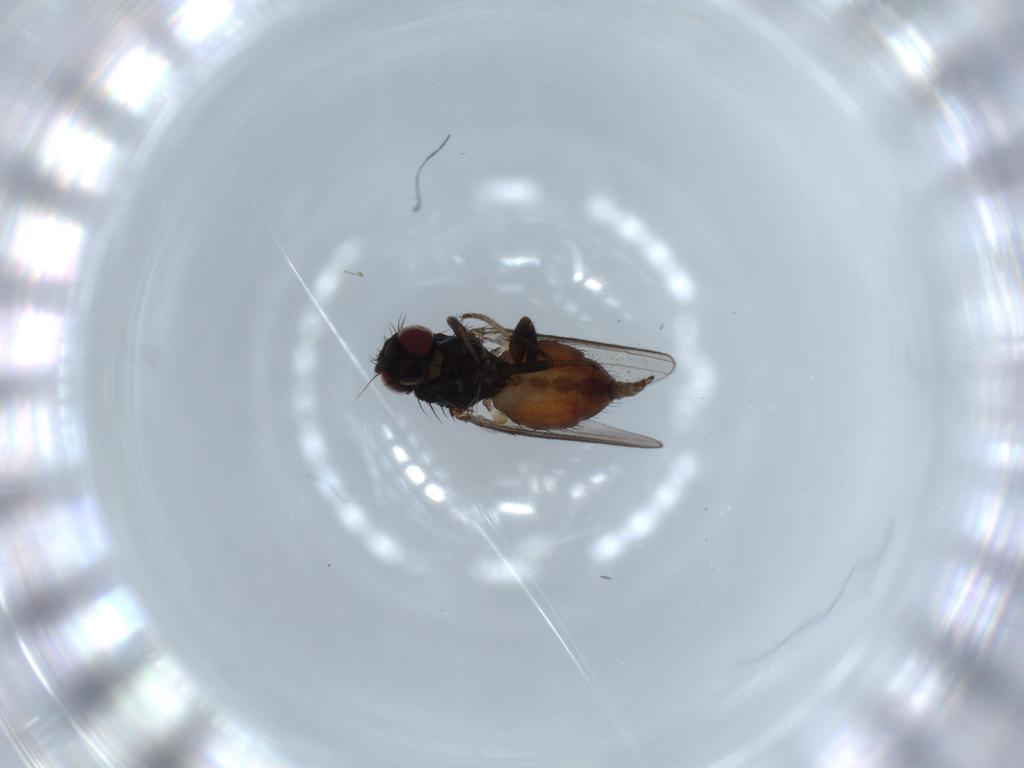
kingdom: Animalia
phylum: Arthropoda
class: Insecta
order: Diptera
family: Milichiidae
